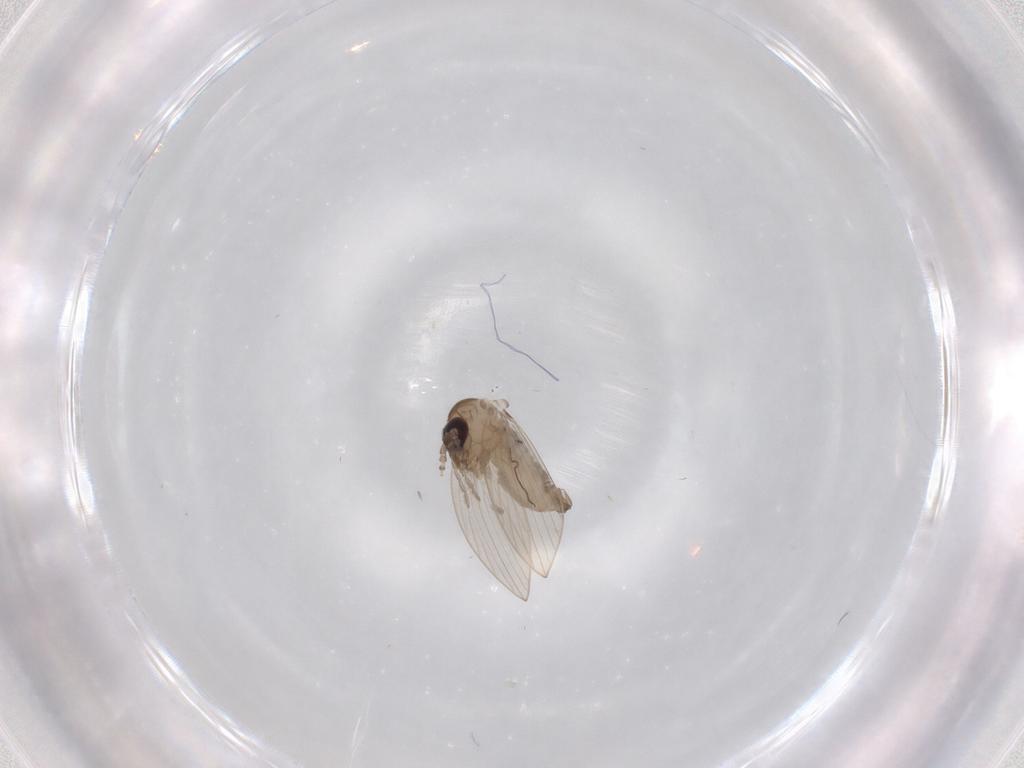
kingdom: Animalia
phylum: Arthropoda
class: Insecta
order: Diptera
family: Psychodidae
